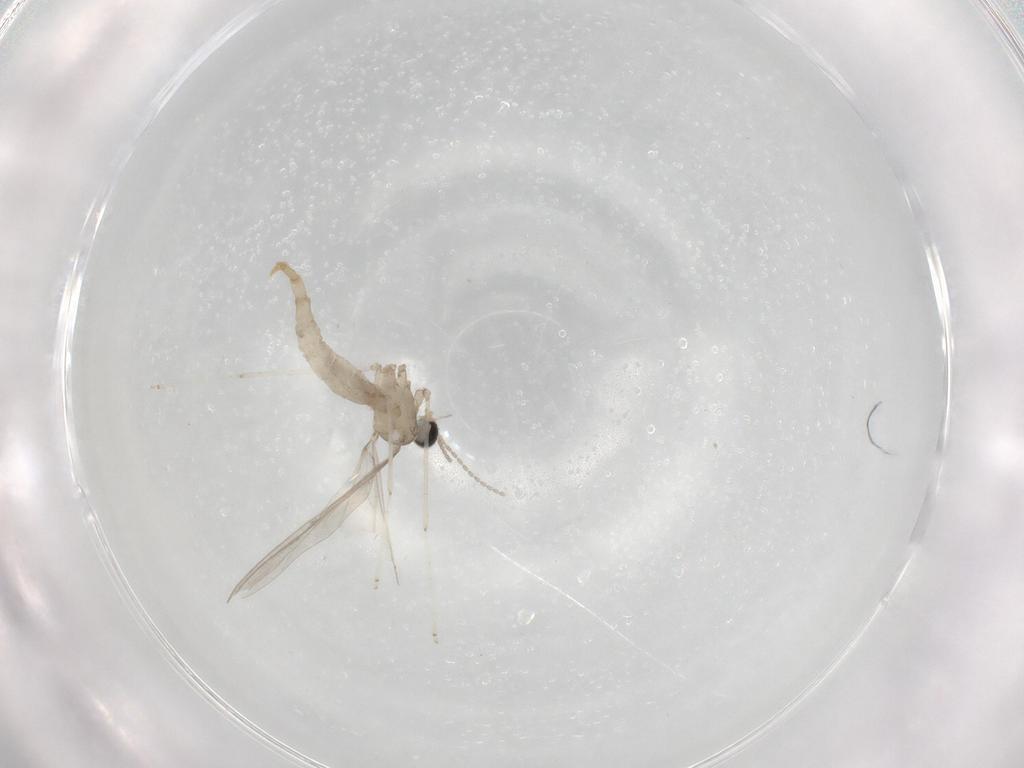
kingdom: Animalia
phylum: Arthropoda
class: Insecta
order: Diptera
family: Cecidomyiidae
